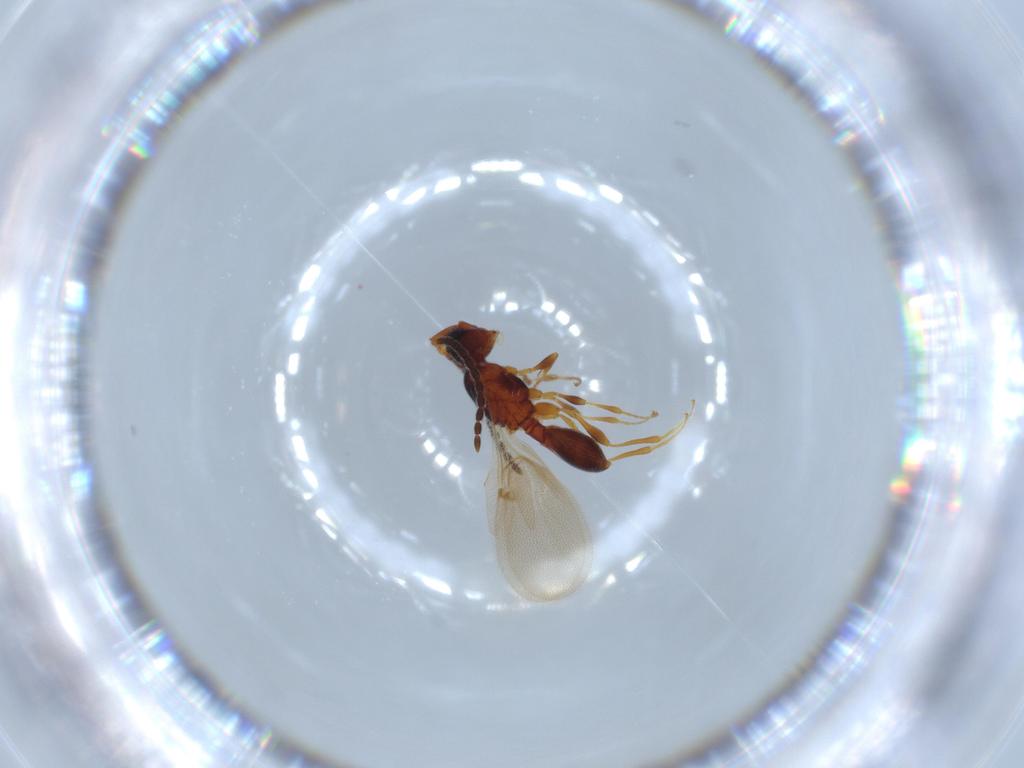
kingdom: Animalia
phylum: Arthropoda
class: Insecta
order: Hymenoptera
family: Diapriidae
